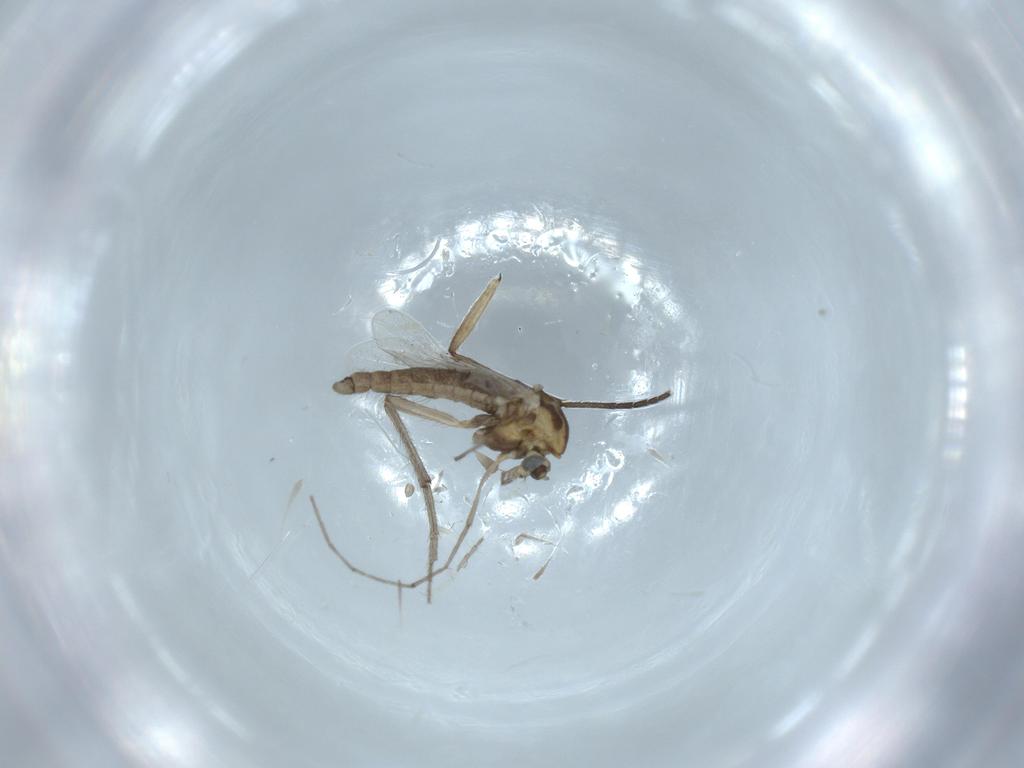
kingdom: Animalia
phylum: Arthropoda
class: Insecta
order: Diptera
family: Chironomidae
